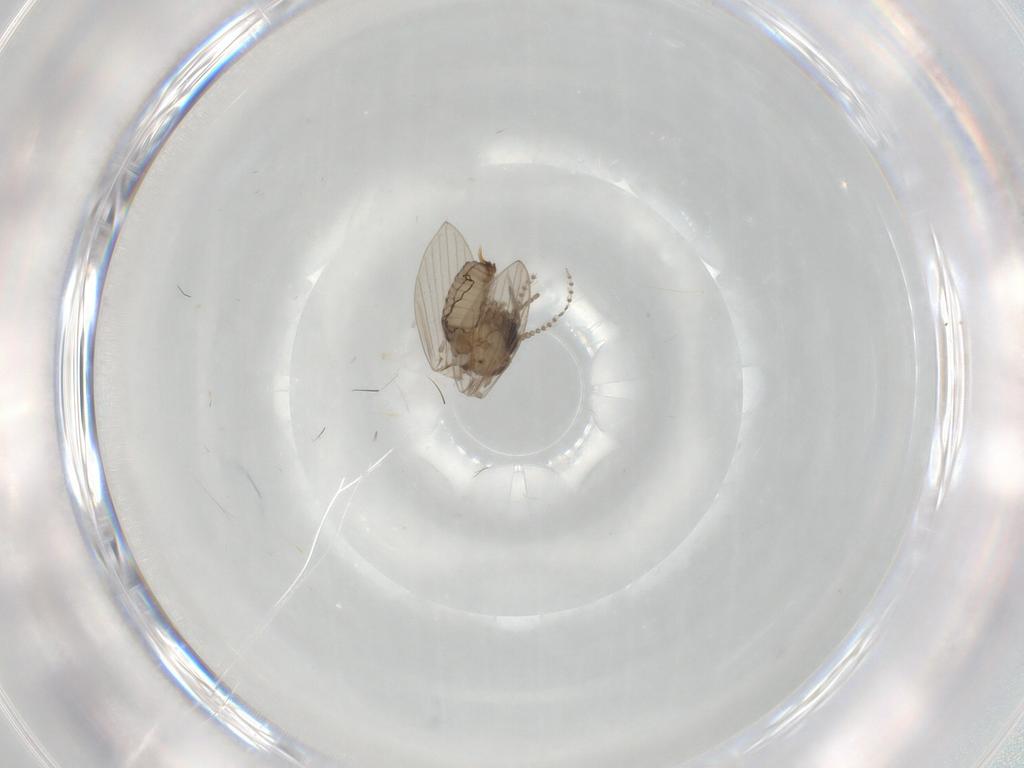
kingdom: Animalia
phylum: Arthropoda
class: Insecta
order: Diptera
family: Psychodidae
